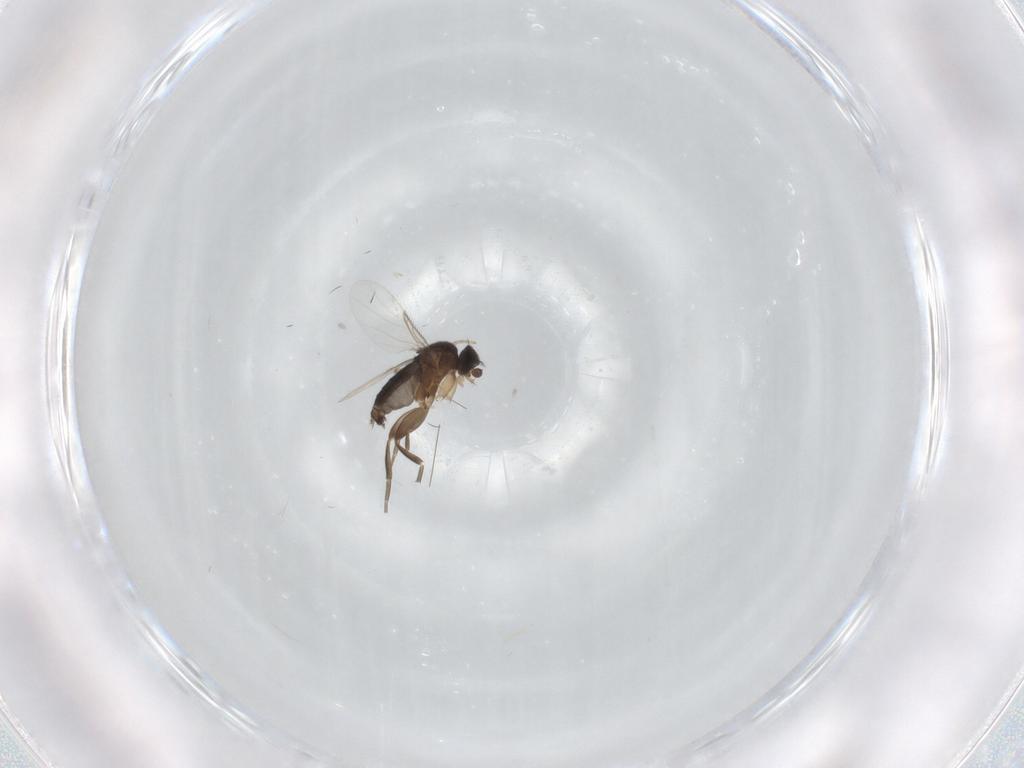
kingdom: Animalia
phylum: Arthropoda
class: Insecta
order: Diptera
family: Phoridae
